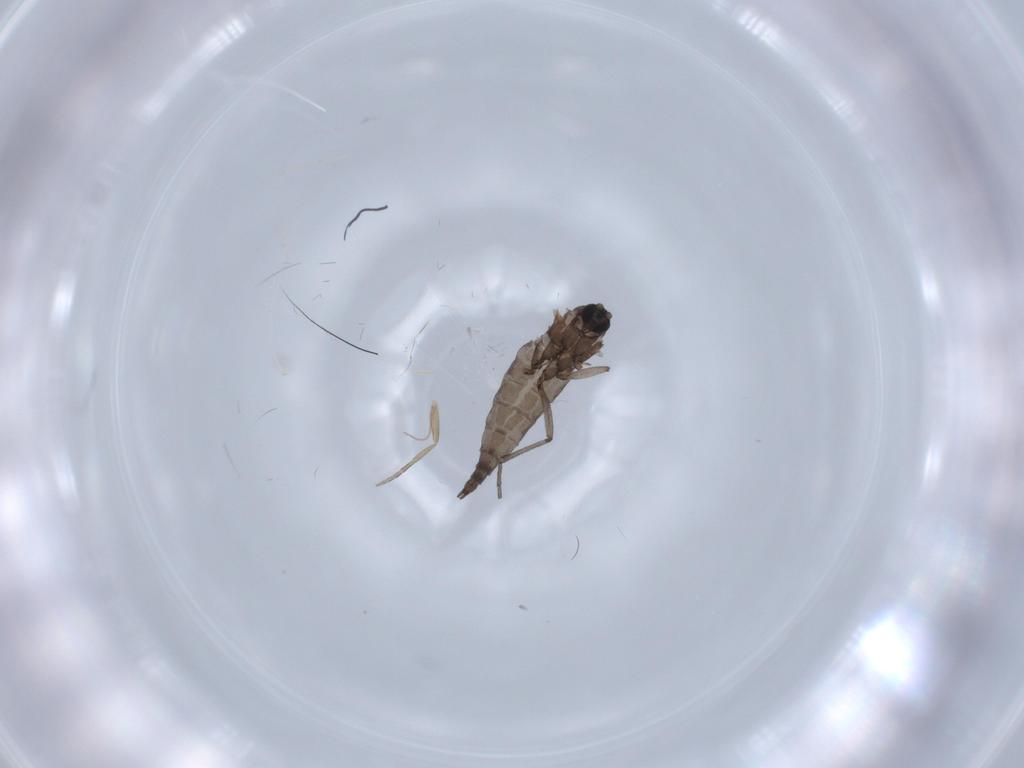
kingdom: Animalia
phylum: Arthropoda
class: Insecta
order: Diptera
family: Sciaridae
